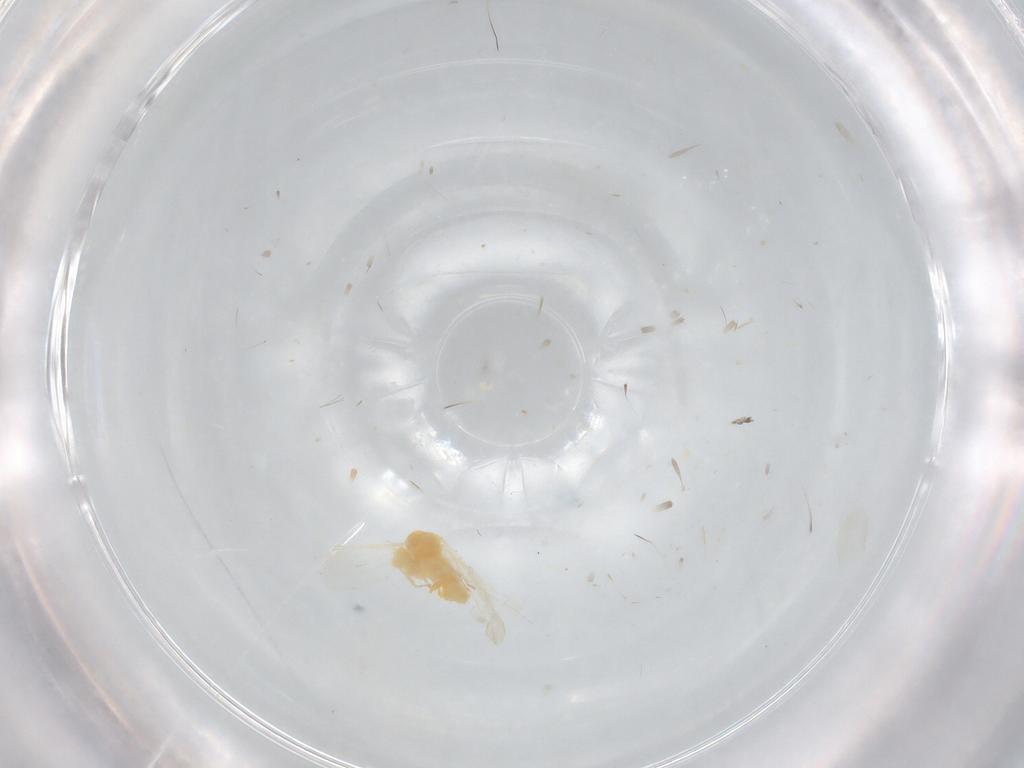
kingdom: Animalia
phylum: Arthropoda
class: Insecta
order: Hemiptera
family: Aleyrodidae
